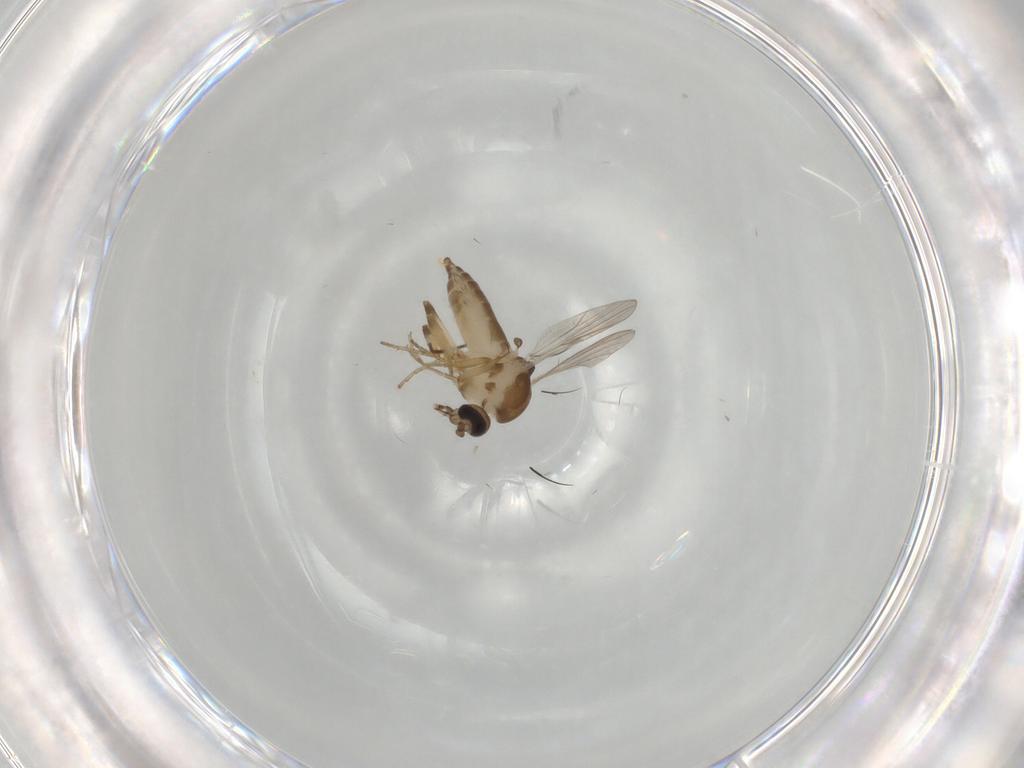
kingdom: Animalia
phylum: Arthropoda
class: Insecta
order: Diptera
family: Ceratopogonidae
